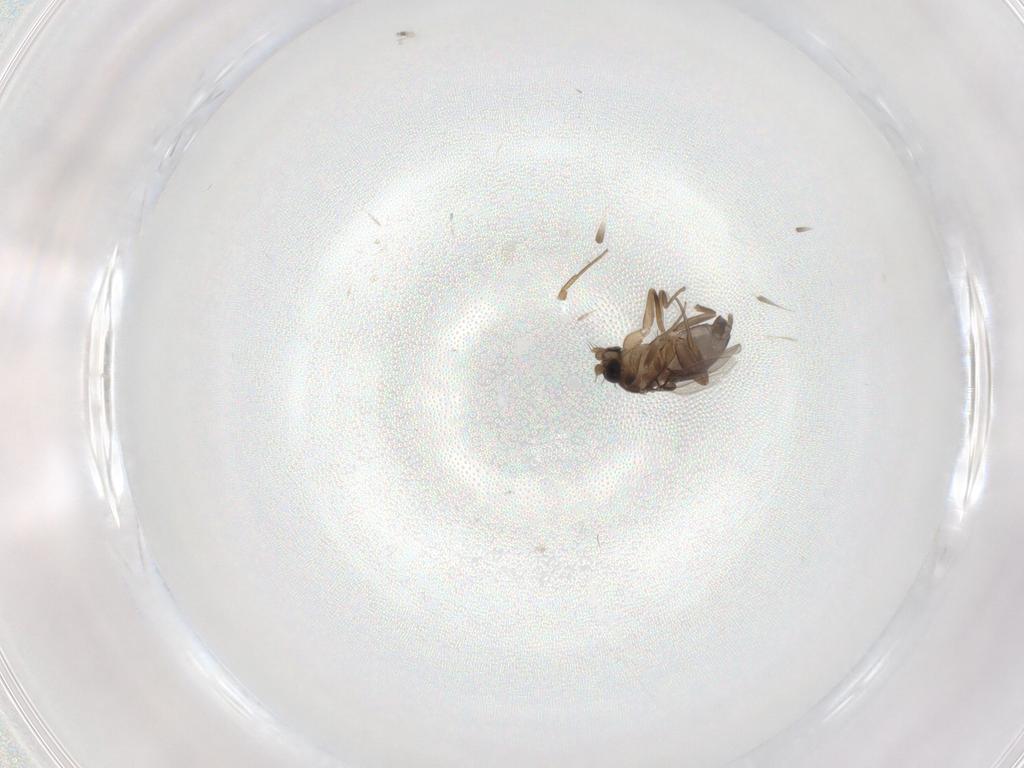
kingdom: Animalia
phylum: Arthropoda
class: Insecta
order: Diptera
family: Phoridae
